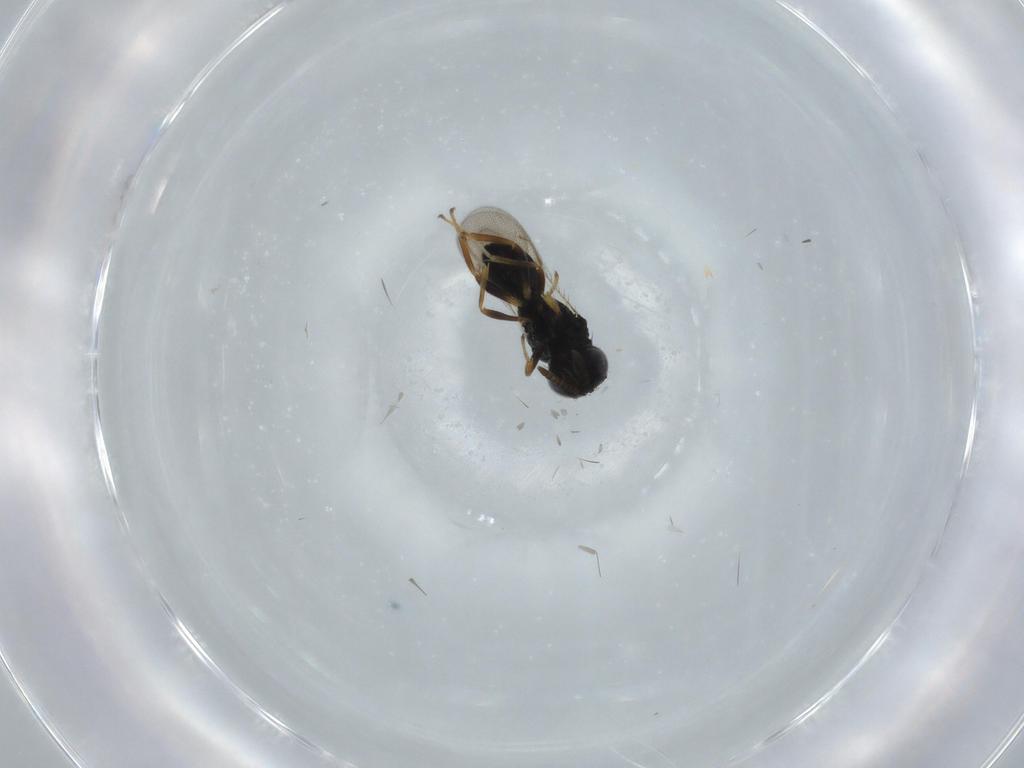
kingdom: Animalia
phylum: Arthropoda
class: Insecta
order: Hymenoptera
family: Pteromalidae
